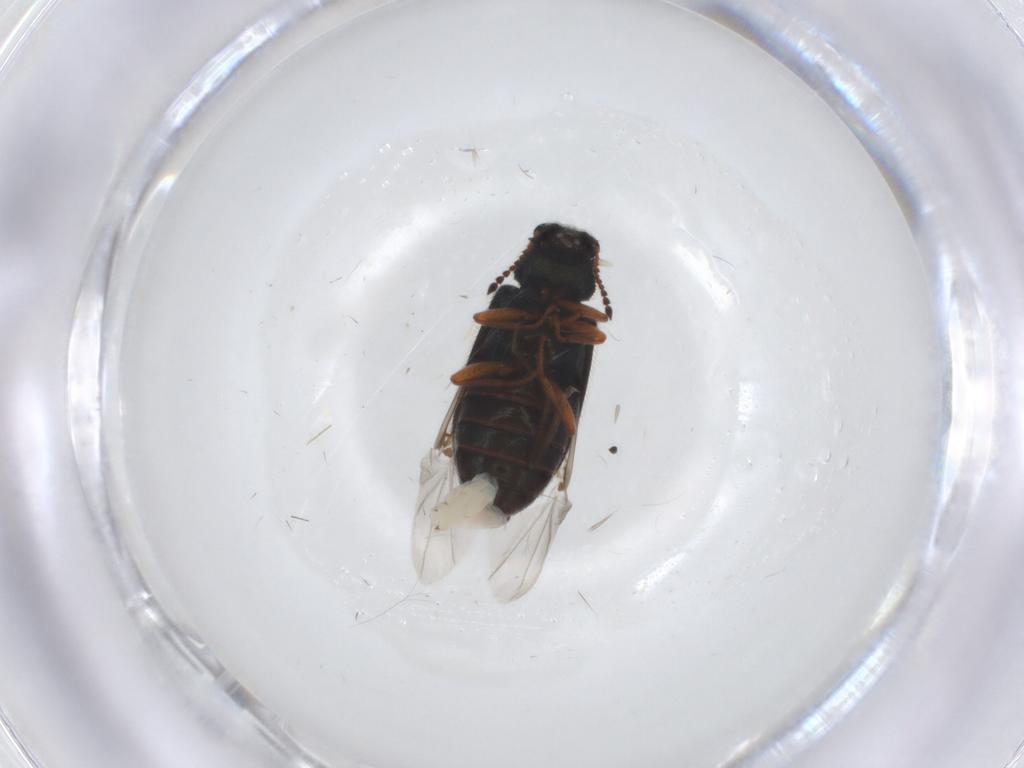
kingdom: Animalia
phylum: Arthropoda
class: Insecta
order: Coleoptera
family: Melyridae
